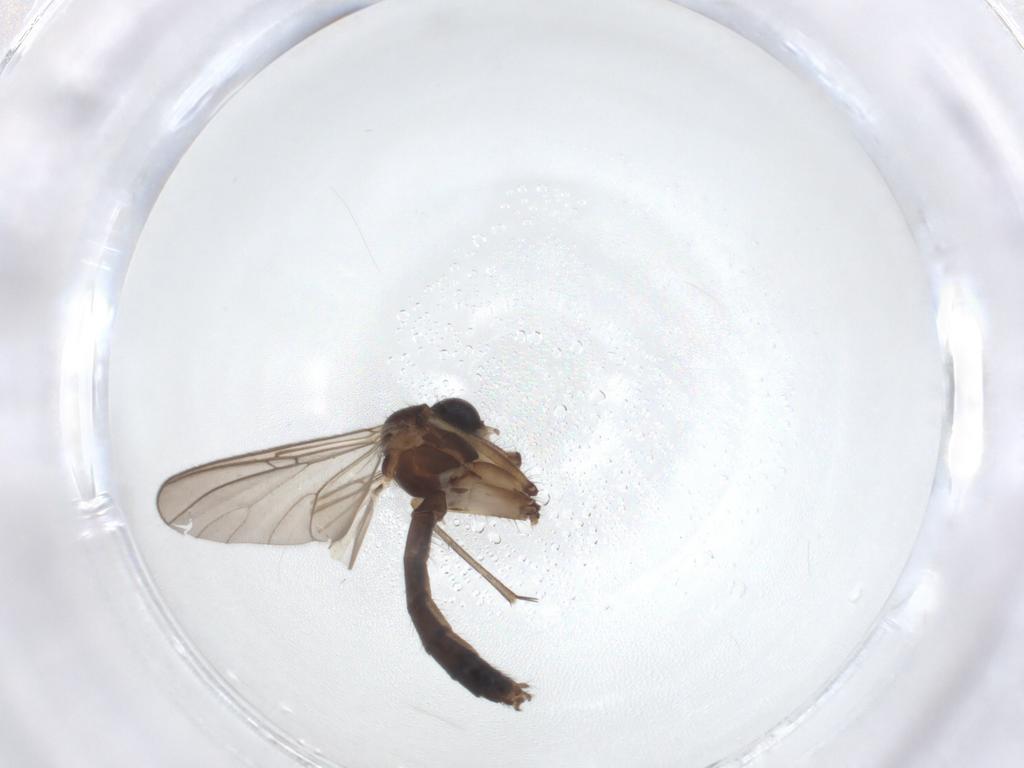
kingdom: Animalia
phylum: Arthropoda
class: Insecta
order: Diptera
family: Mycetophilidae
